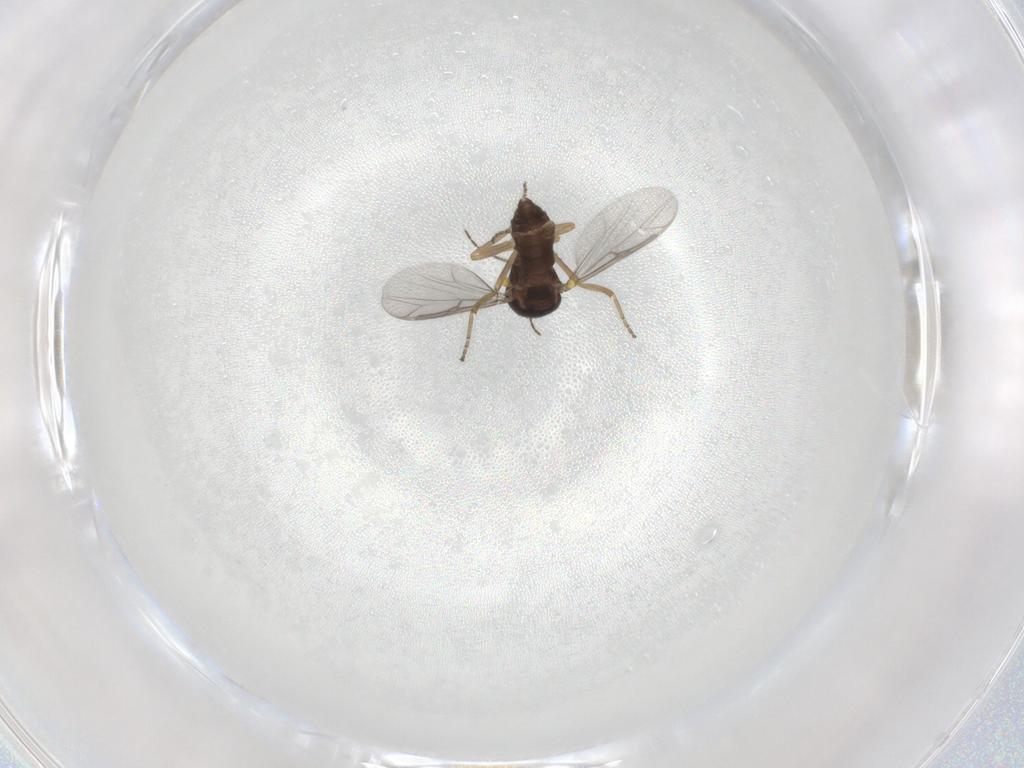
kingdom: Animalia
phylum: Arthropoda
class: Insecta
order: Diptera
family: Ceratopogonidae
